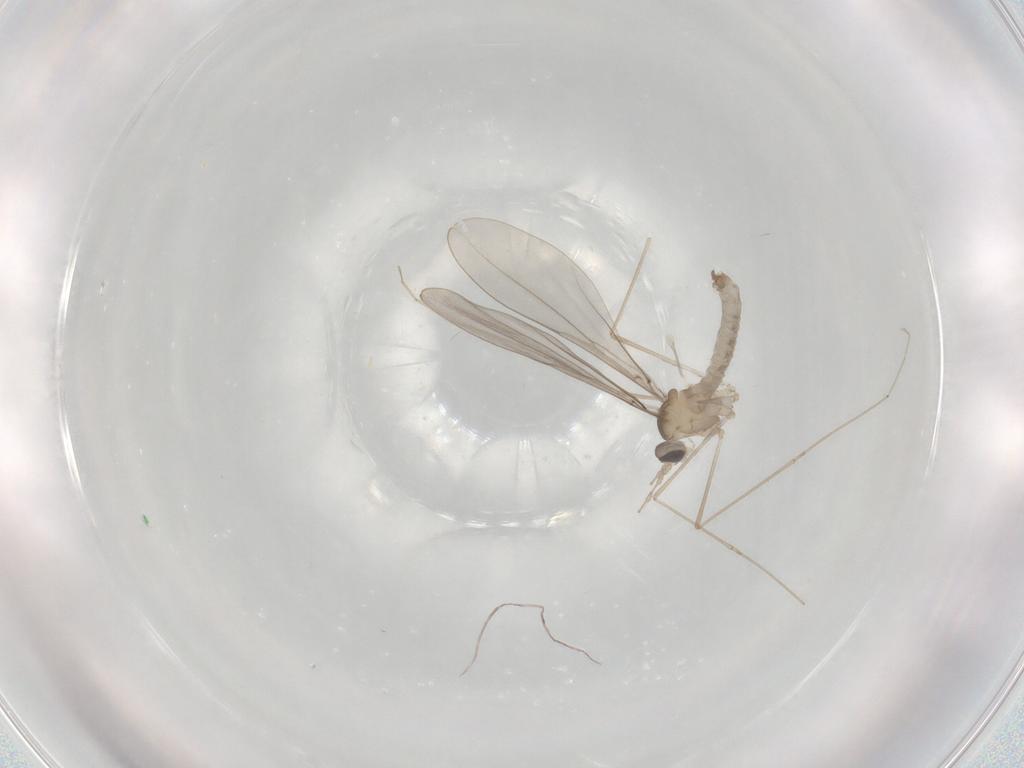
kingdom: Animalia
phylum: Arthropoda
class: Insecta
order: Diptera
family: Cecidomyiidae
